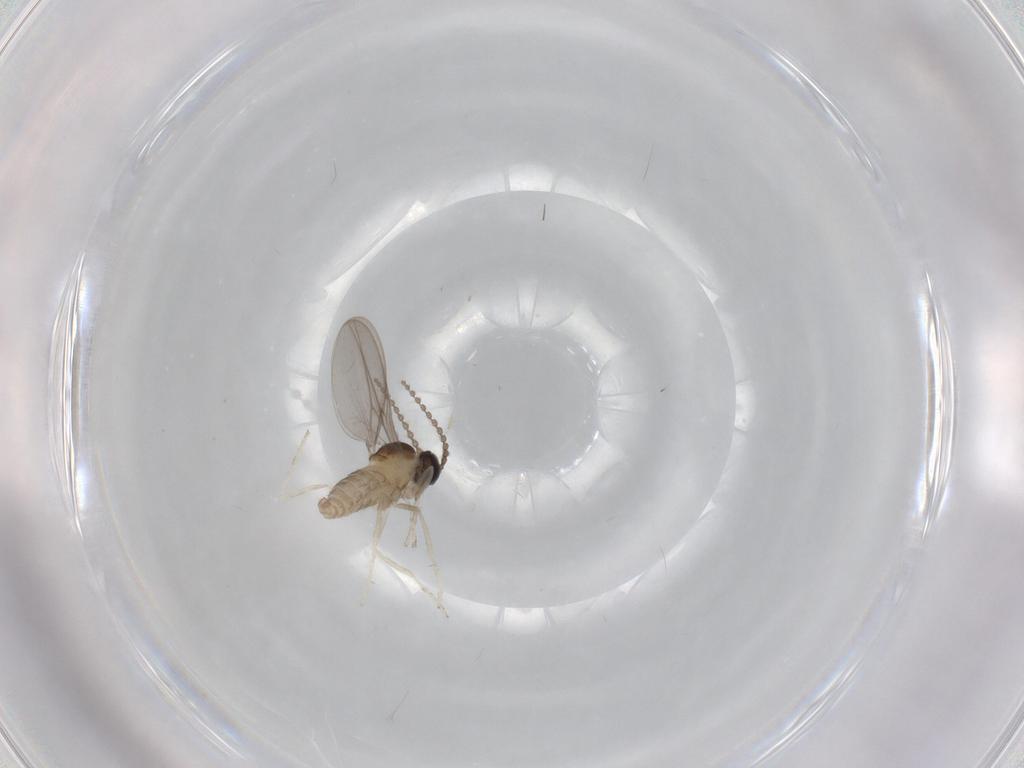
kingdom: Animalia
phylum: Arthropoda
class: Insecta
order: Diptera
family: Cecidomyiidae
